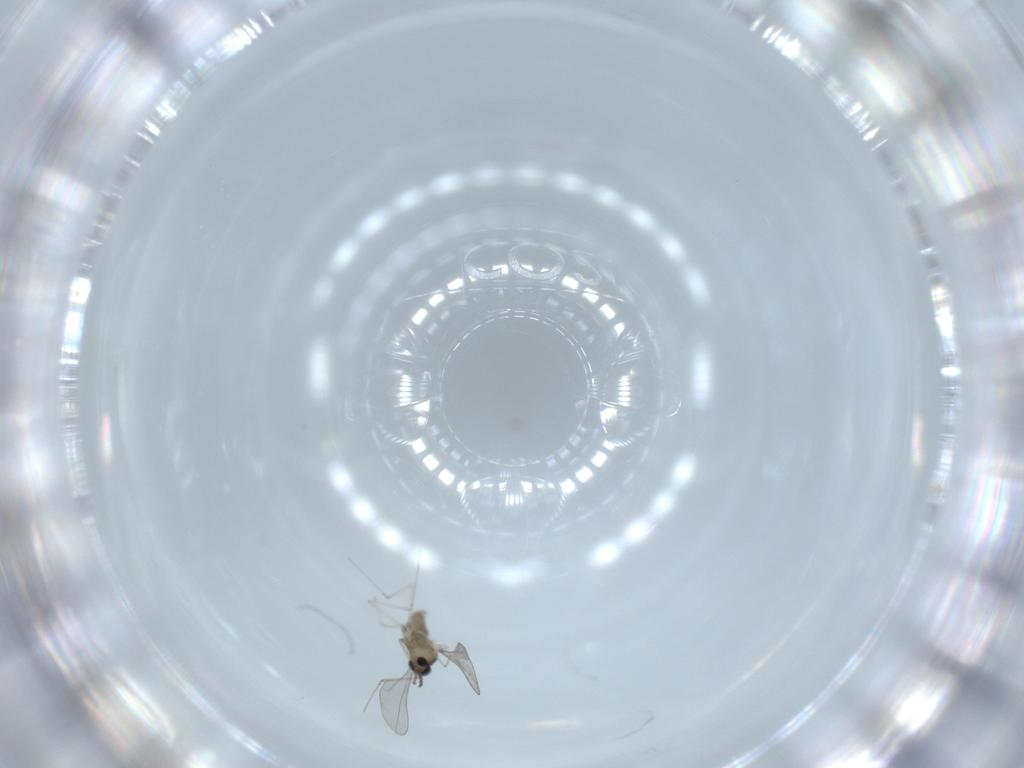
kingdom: Animalia
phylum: Arthropoda
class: Insecta
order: Diptera
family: Cecidomyiidae
